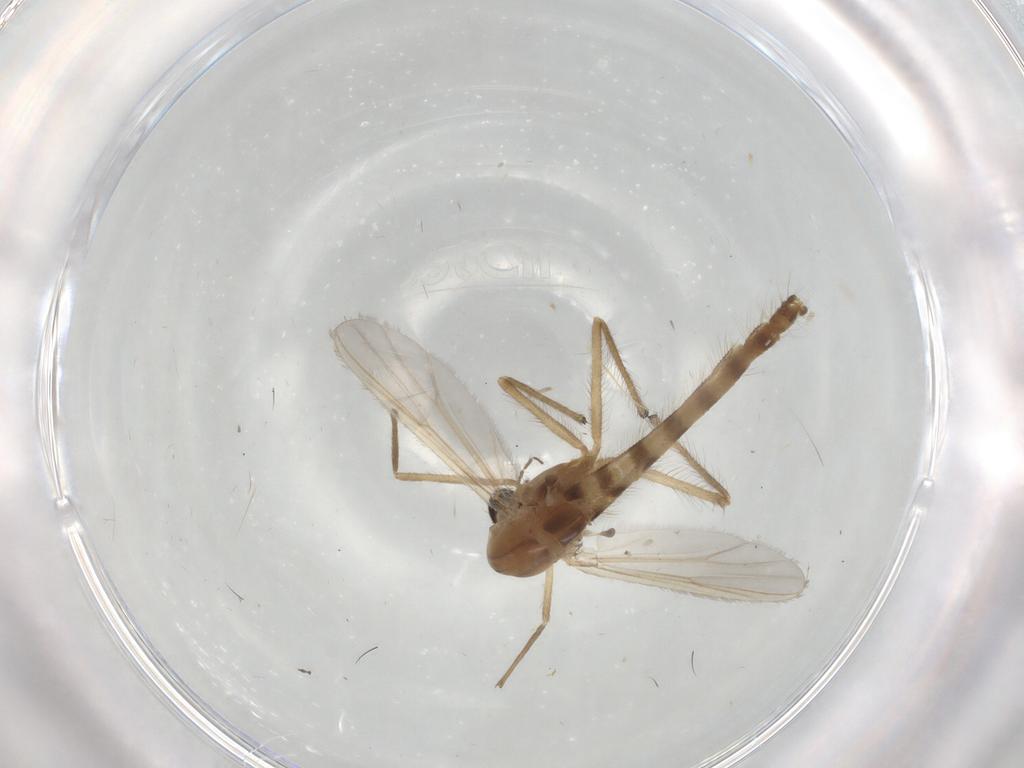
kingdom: Animalia
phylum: Arthropoda
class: Insecta
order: Diptera
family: Chironomidae
